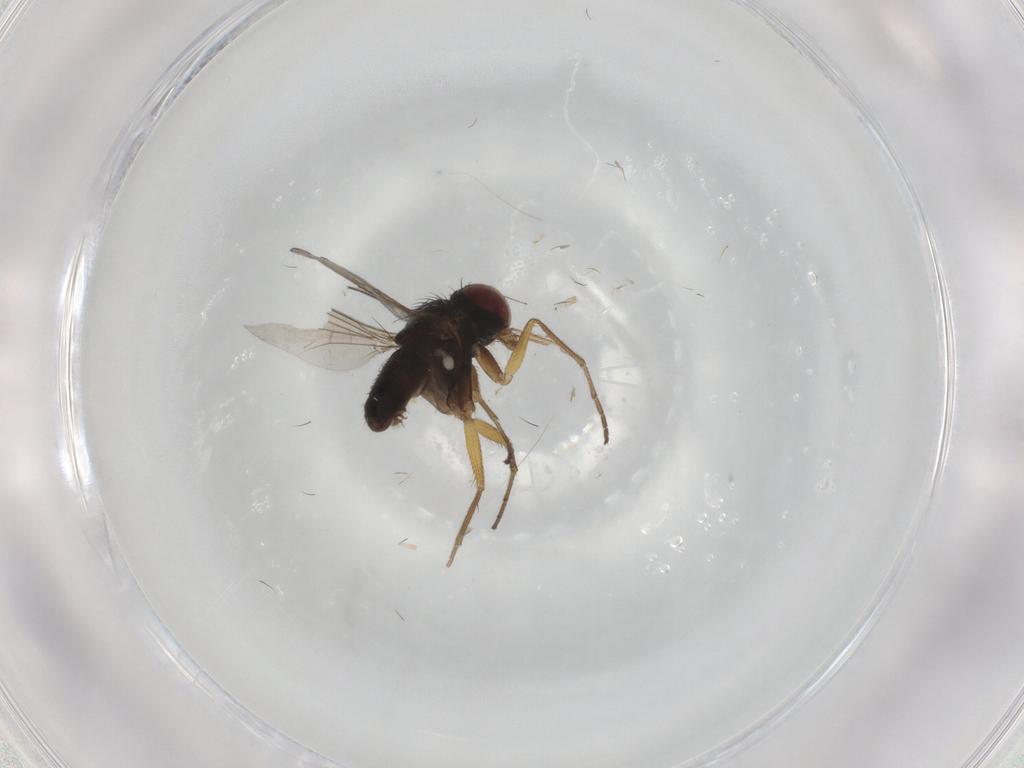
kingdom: Animalia
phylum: Arthropoda
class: Insecta
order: Diptera
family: Dolichopodidae
